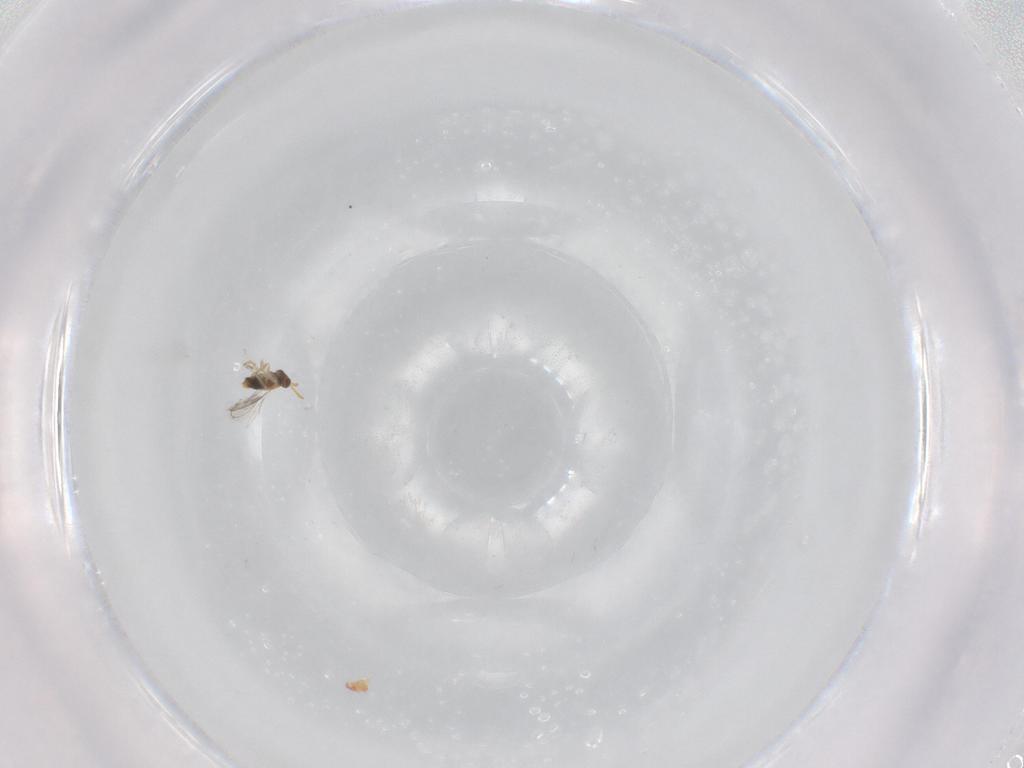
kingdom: Animalia
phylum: Arthropoda
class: Insecta
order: Hymenoptera
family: Aphelinidae
